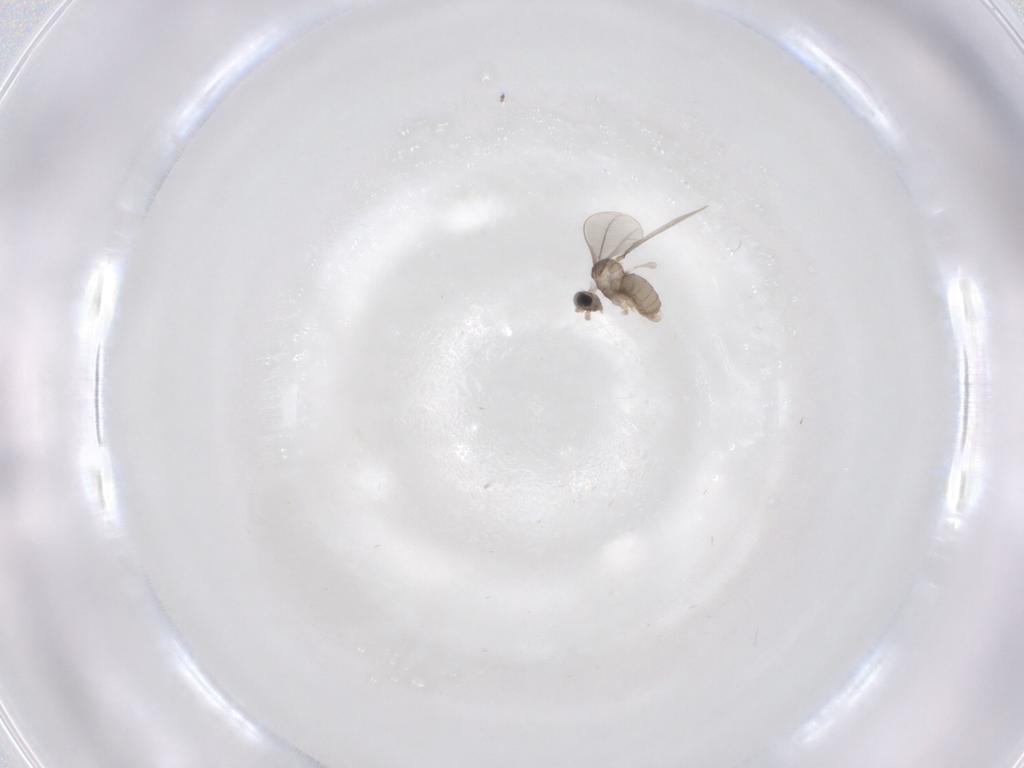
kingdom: Animalia
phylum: Arthropoda
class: Insecta
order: Diptera
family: Cecidomyiidae
